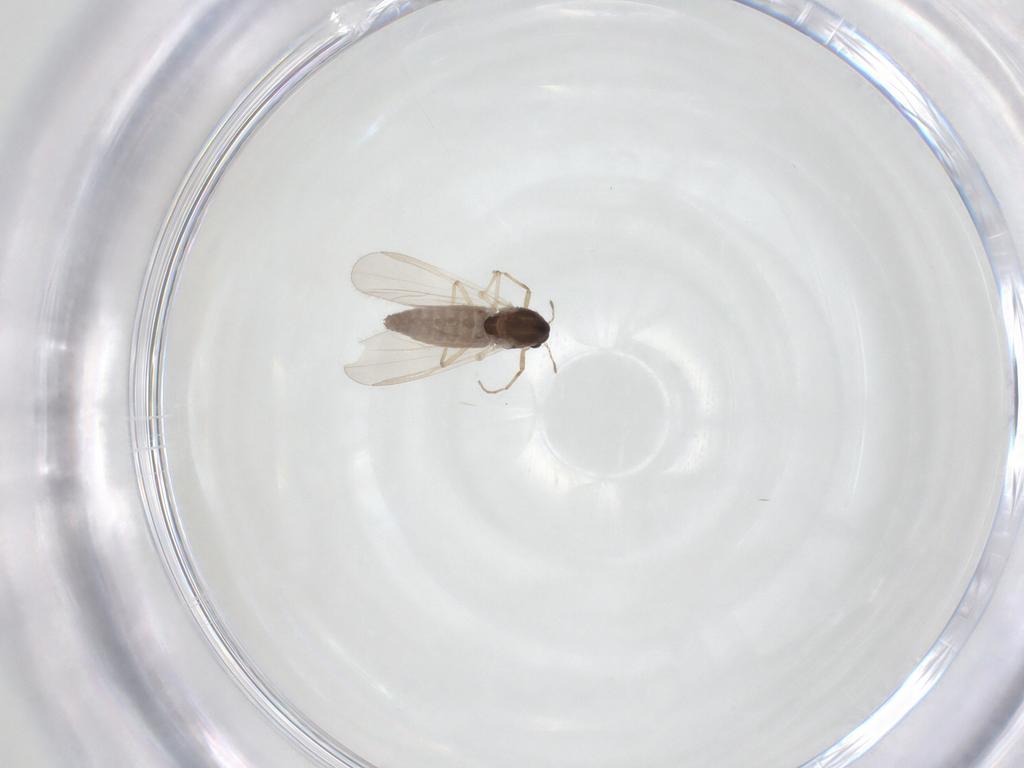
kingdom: Animalia
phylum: Arthropoda
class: Insecta
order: Diptera
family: Chironomidae
